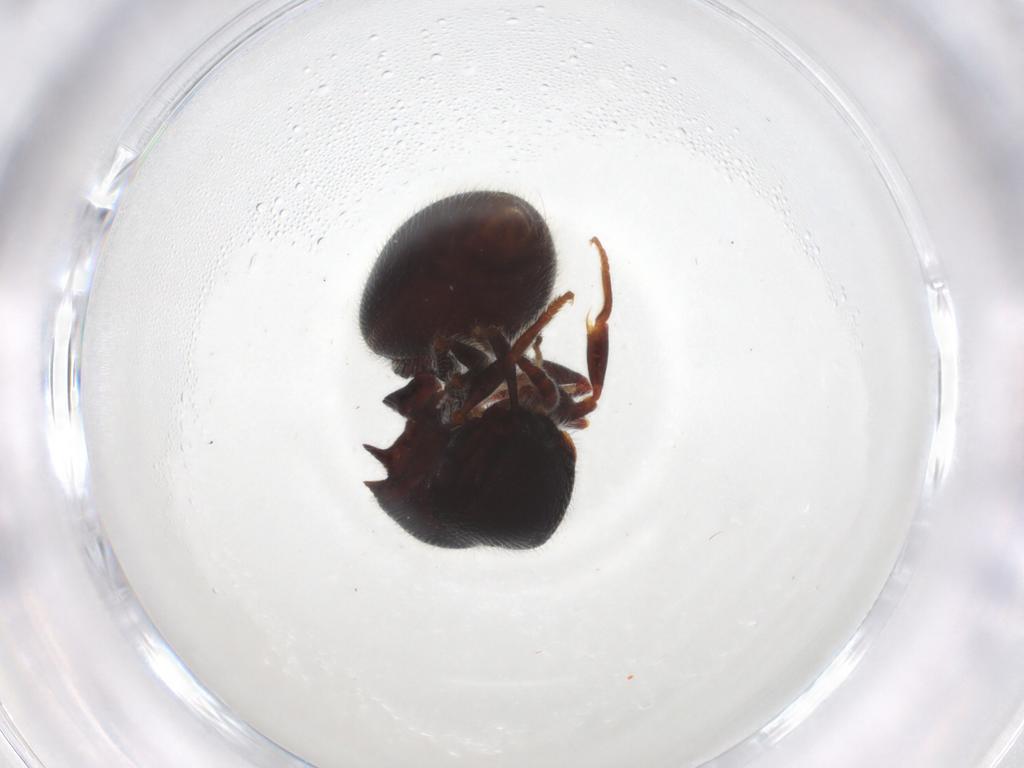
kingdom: Animalia
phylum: Arthropoda
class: Insecta
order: Hymenoptera
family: Formicidae
